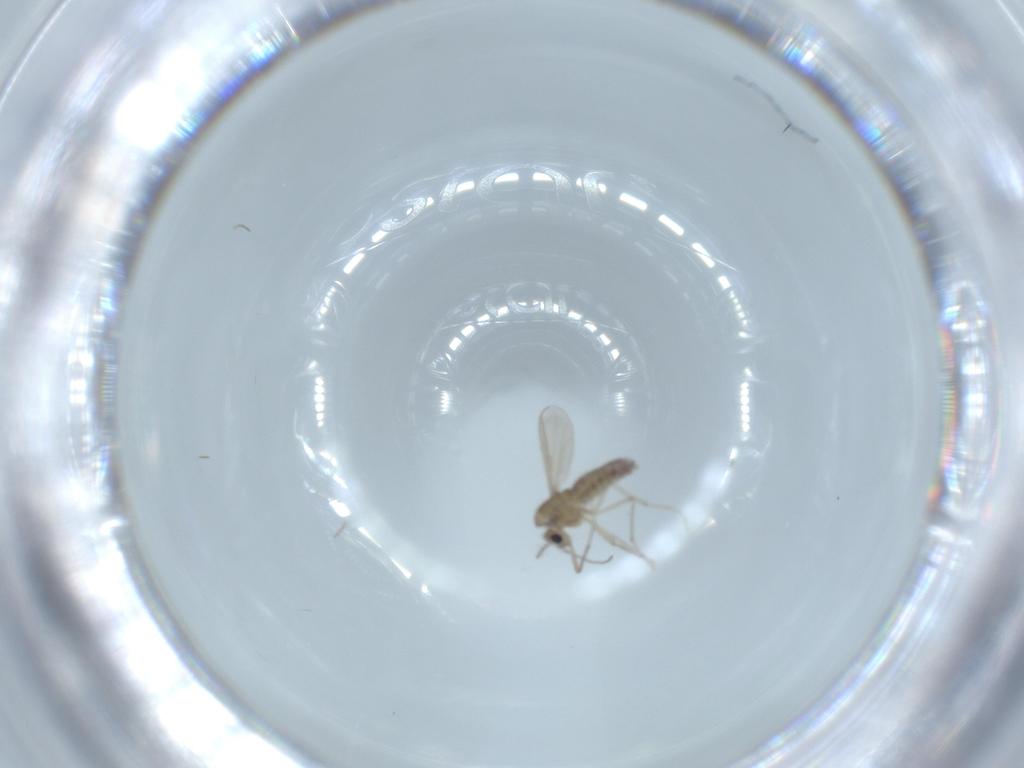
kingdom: Animalia
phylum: Arthropoda
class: Insecta
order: Diptera
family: Chironomidae
